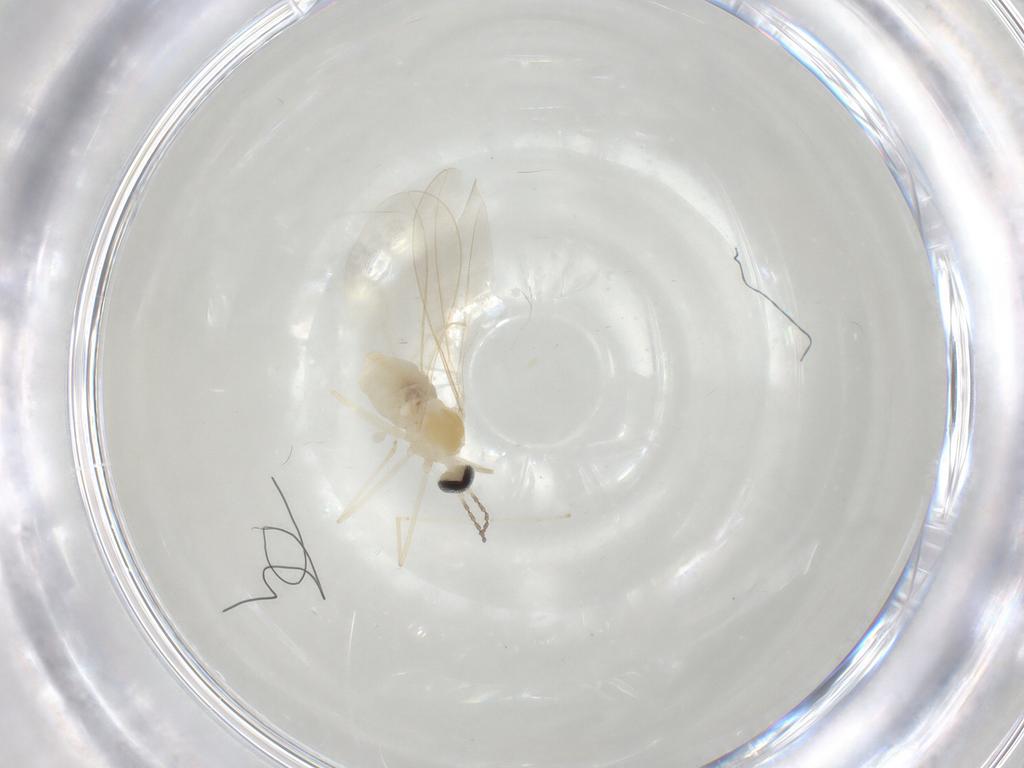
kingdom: Animalia
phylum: Arthropoda
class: Insecta
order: Diptera
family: Cecidomyiidae
